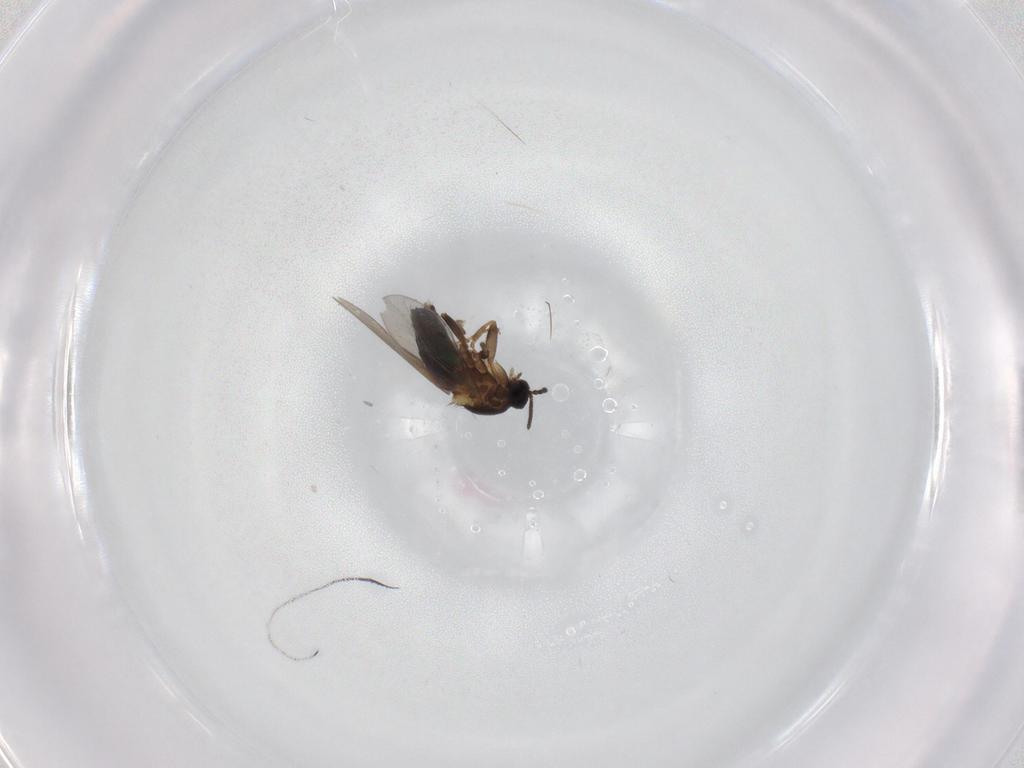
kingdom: Animalia
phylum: Arthropoda
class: Insecta
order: Diptera
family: Scatopsidae
